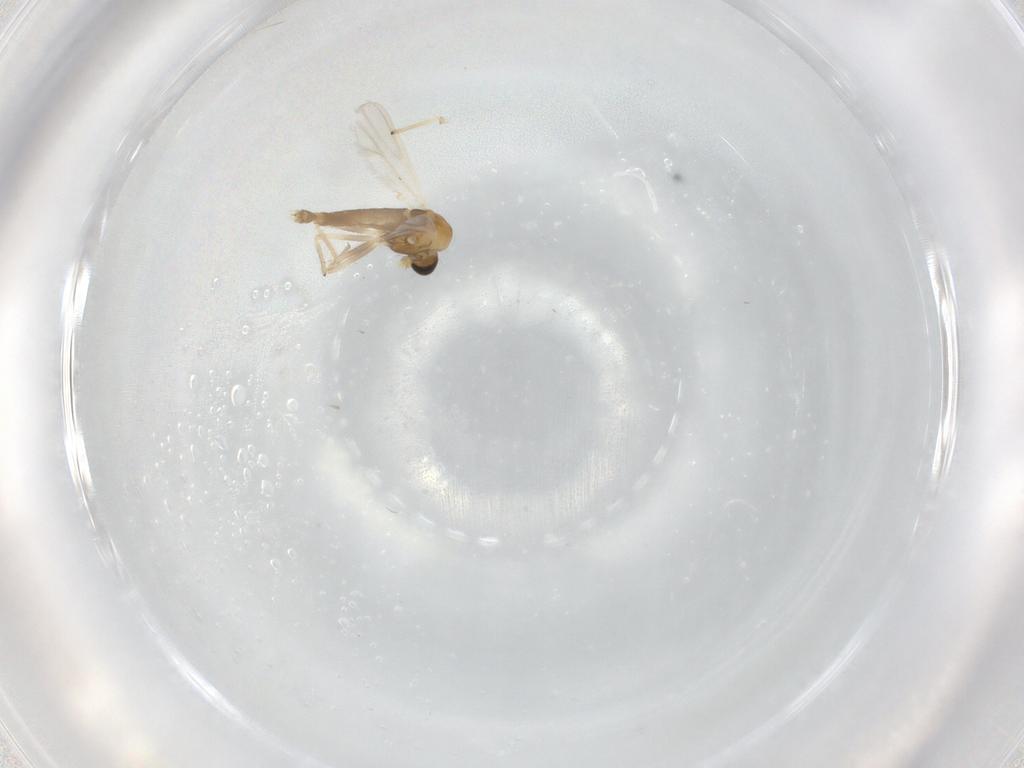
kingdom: Animalia
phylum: Arthropoda
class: Insecta
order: Diptera
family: Chironomidae
